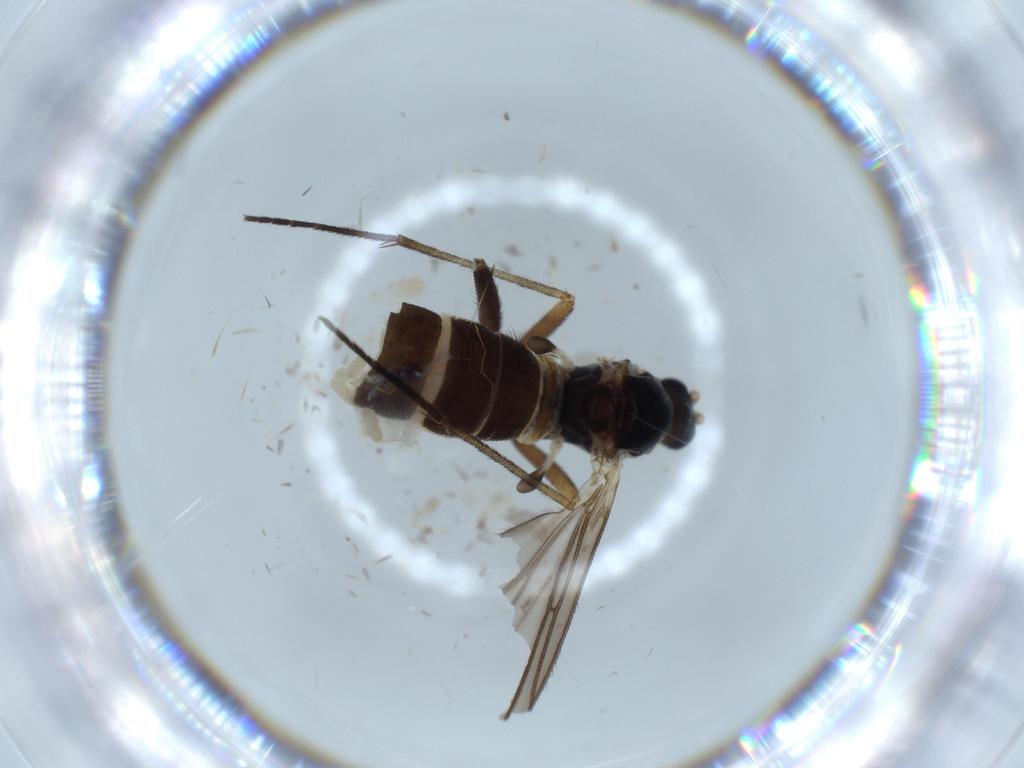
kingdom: Animalia
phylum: Arthropoda
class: Insecta
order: Diptera
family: Sciaridae
